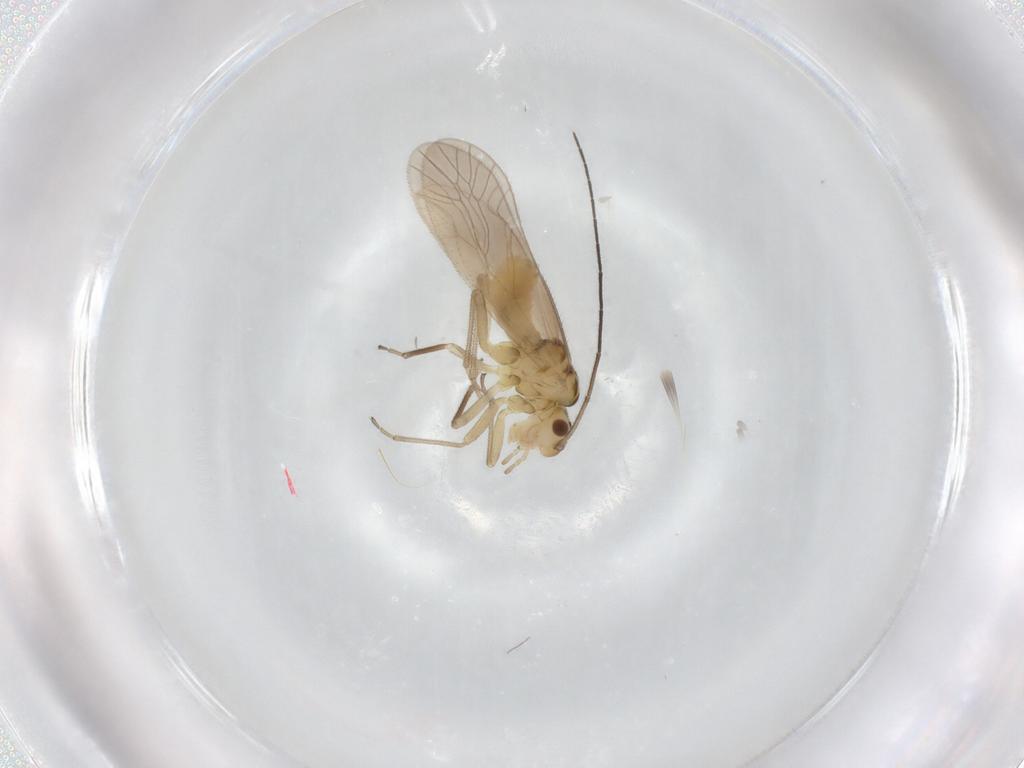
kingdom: Animalia
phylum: Arthropoda
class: Insecta
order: Psocodea
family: Caeciliusidae
